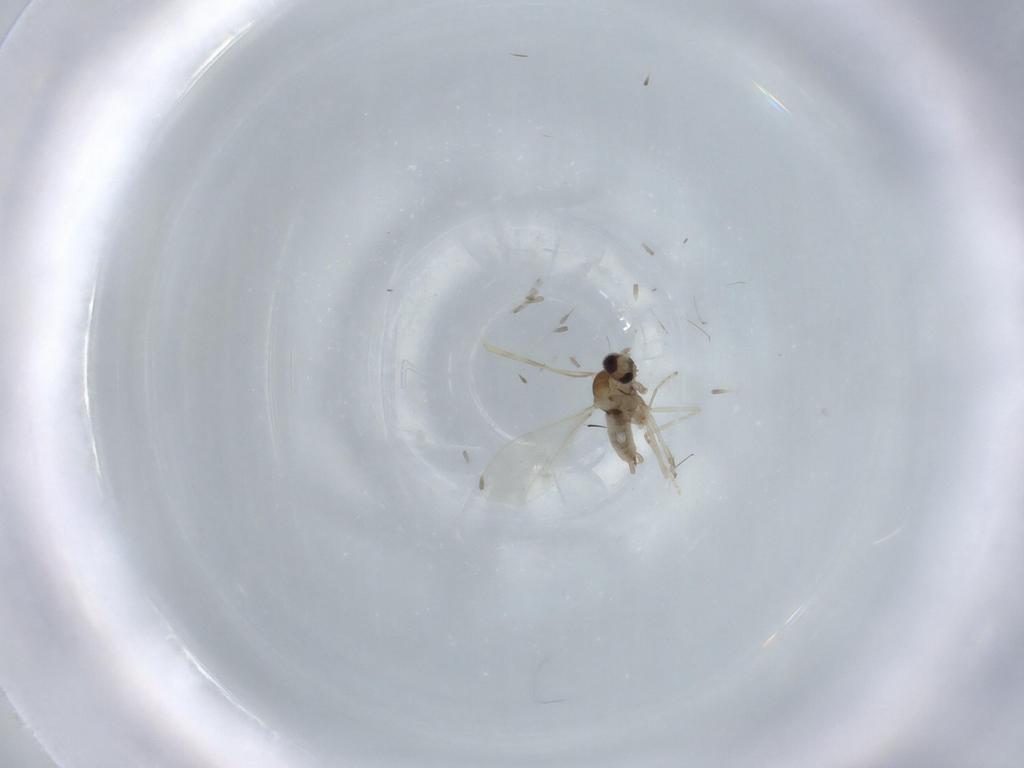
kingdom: Animalia
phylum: Arthropoda
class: Insecta
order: Diptera
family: Cecidomyiidae
